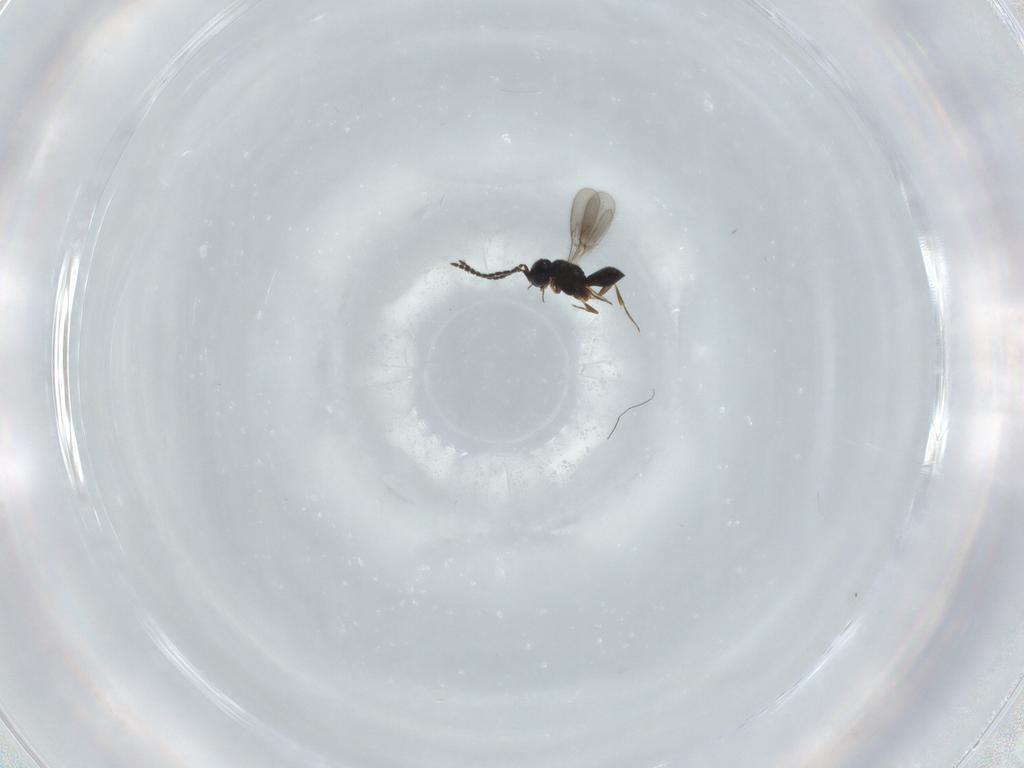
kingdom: Animalia
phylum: Arthropoda
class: Insecta
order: Hymenoptera
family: Scelionidae
